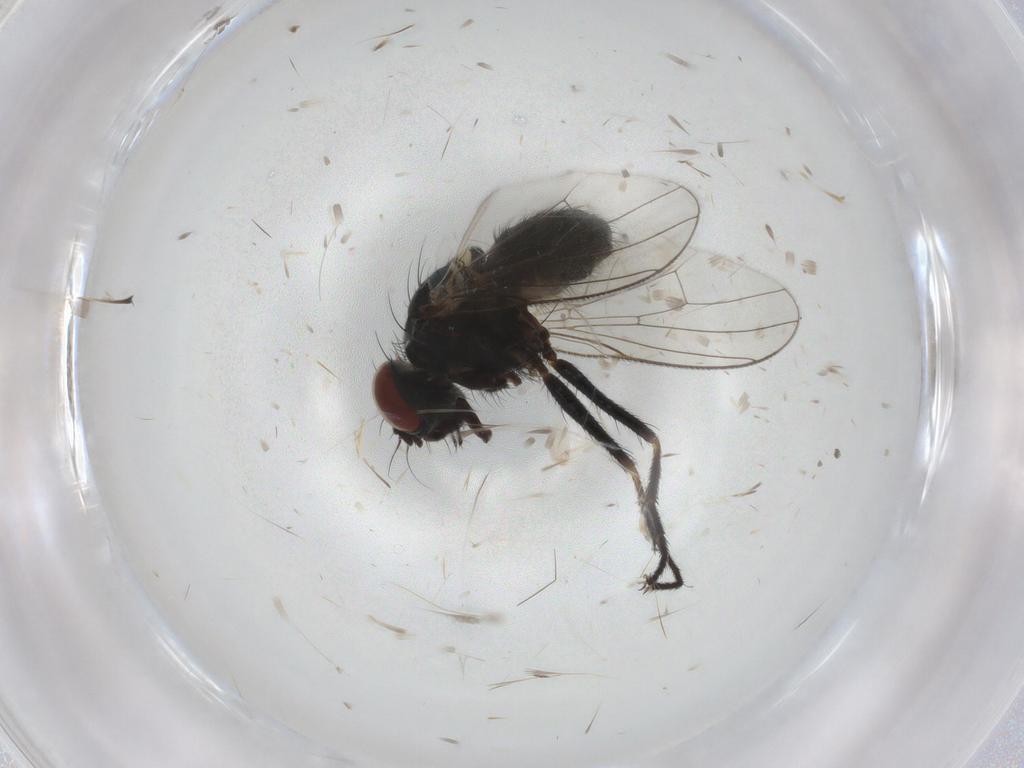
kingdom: Animalia
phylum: Arthropoda
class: Insecta
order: Diptera
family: Muscidae
